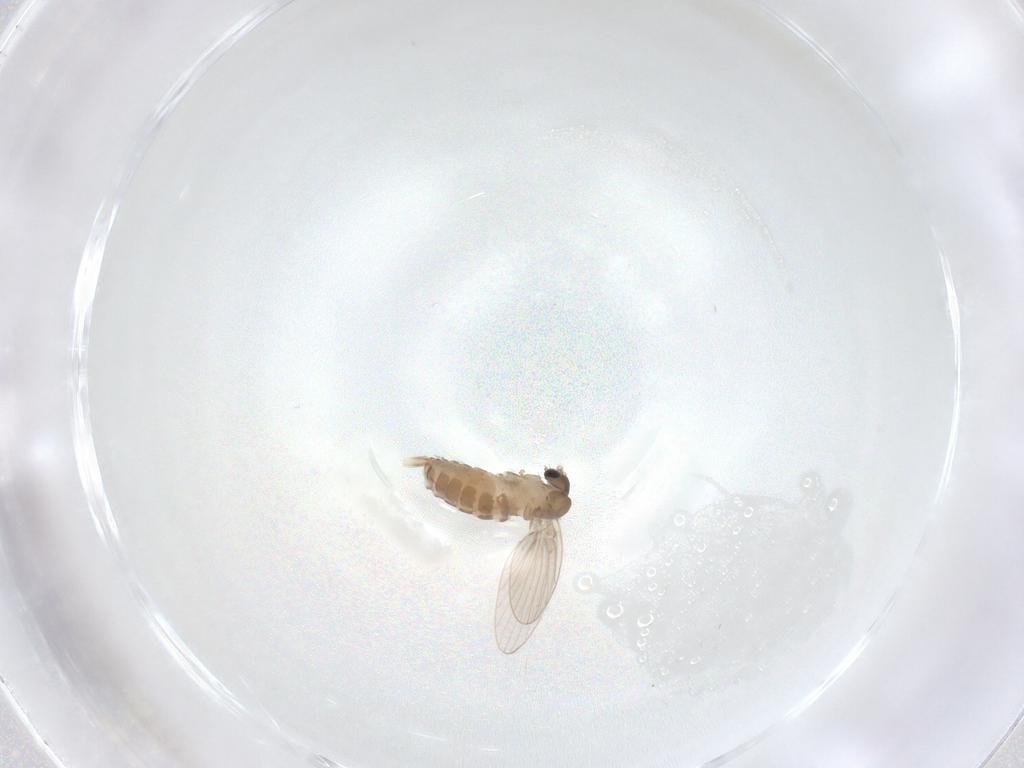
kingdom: Animalia
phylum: Arthropoda
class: Insecta
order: Diptera
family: Psychodidae
